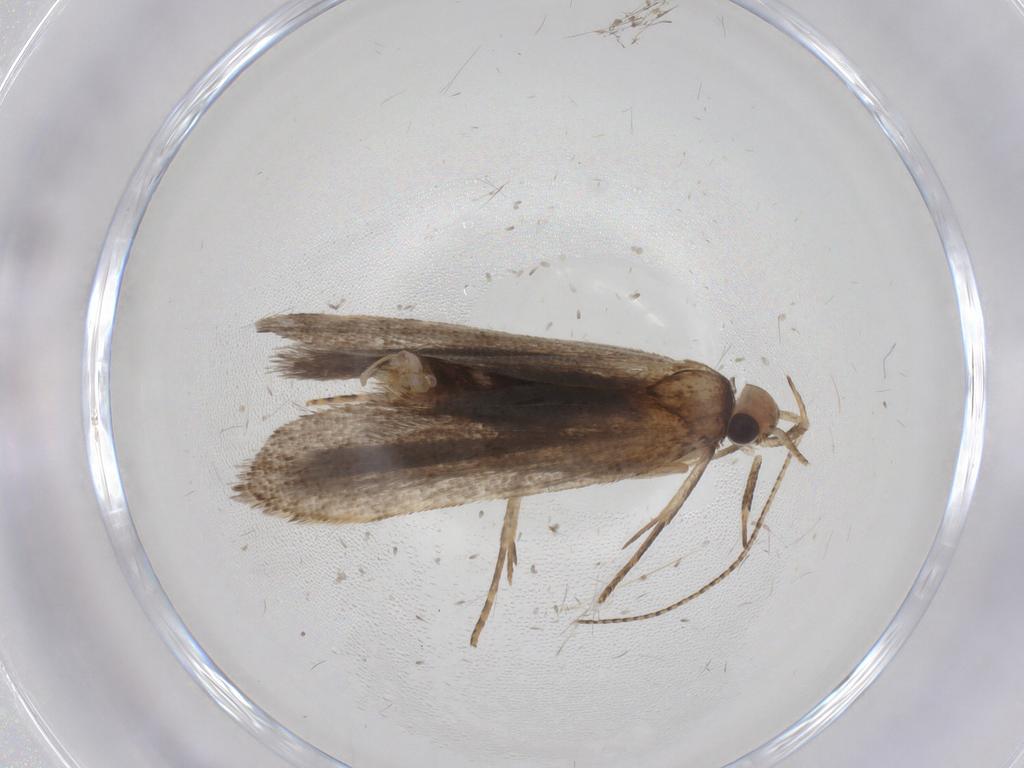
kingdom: Animalia
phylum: Arthropoda
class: Insecta
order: Lepidoptera
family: Gelechiidae
